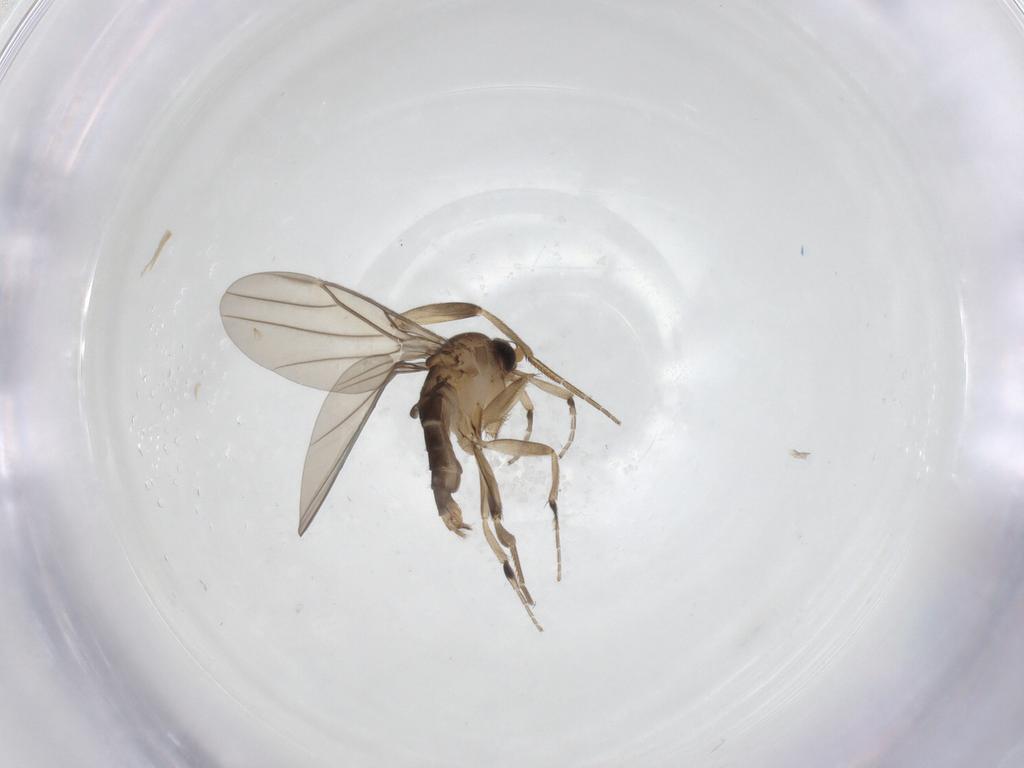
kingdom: Animalia
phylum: Arthropoda
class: Insecta
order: Diptera
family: Phoridae
